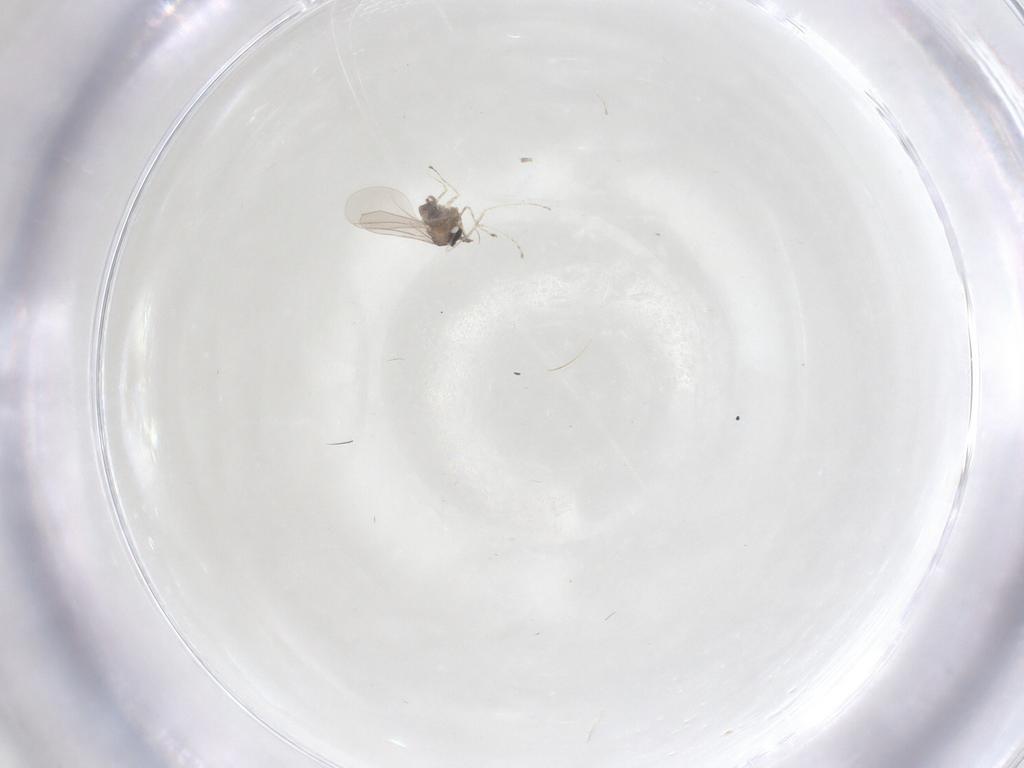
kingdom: Animalia
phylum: Arthropoda
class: Insecta
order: Diptera
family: Cecidomyiidae
